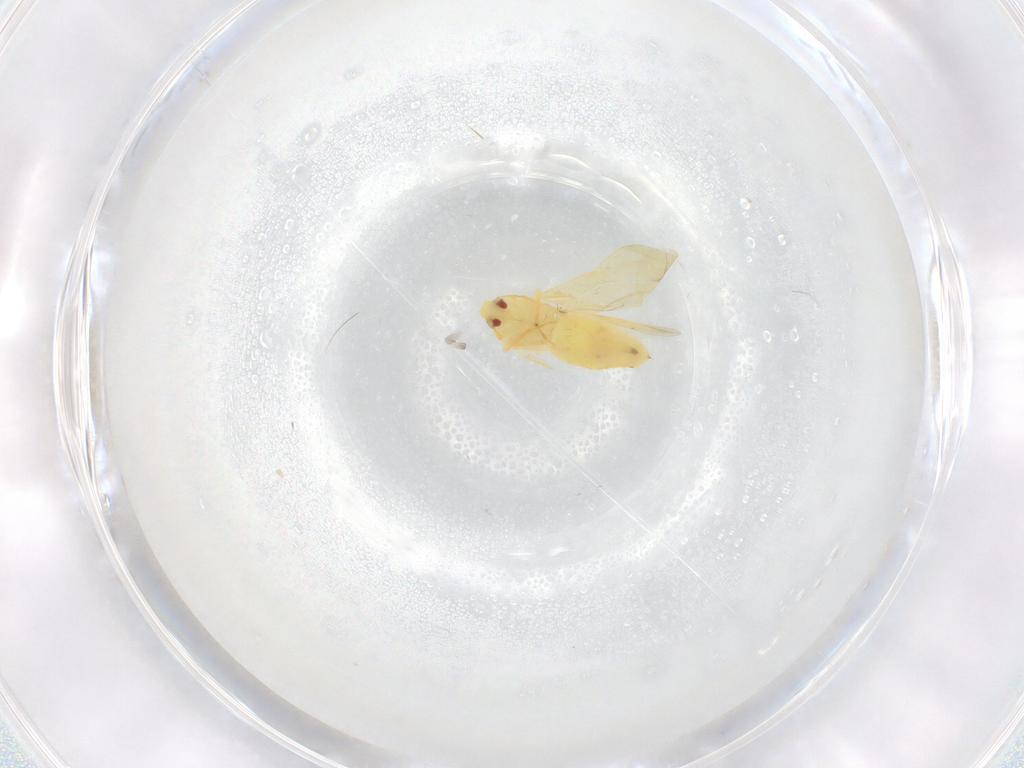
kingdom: Animalia
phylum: Arthropoda
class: Insecta
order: Hemiptera
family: Aleyrodidae
